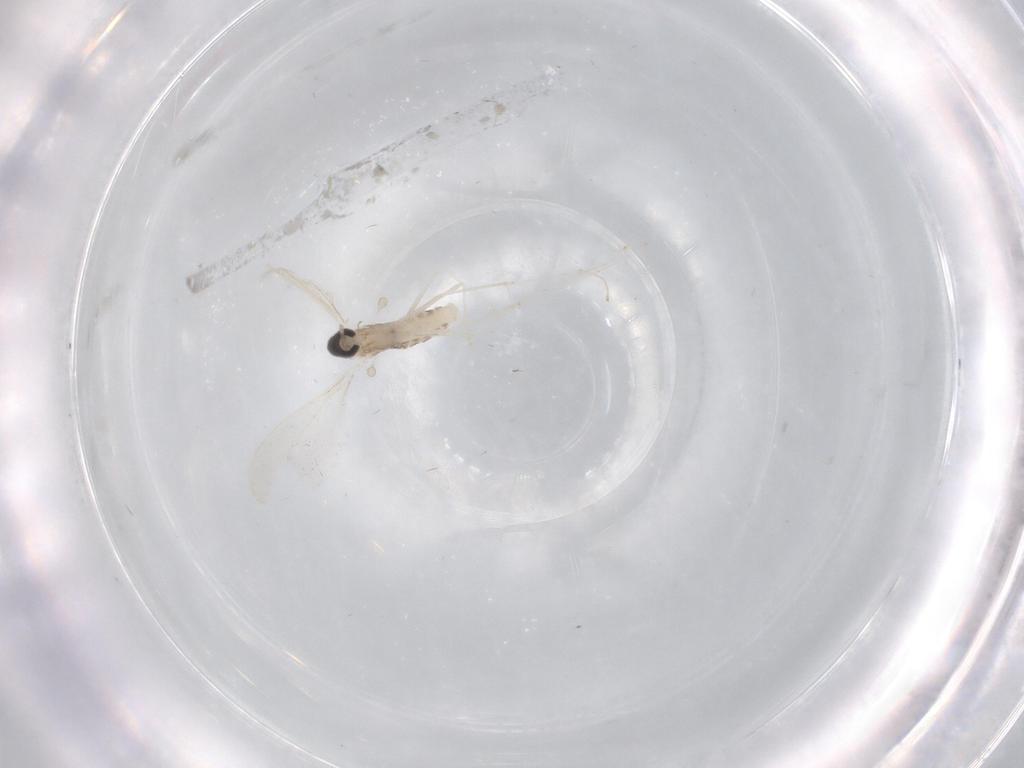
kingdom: Animalia
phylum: Arthropoda
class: Insecta
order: Diptera
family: Cecidomyiidae
